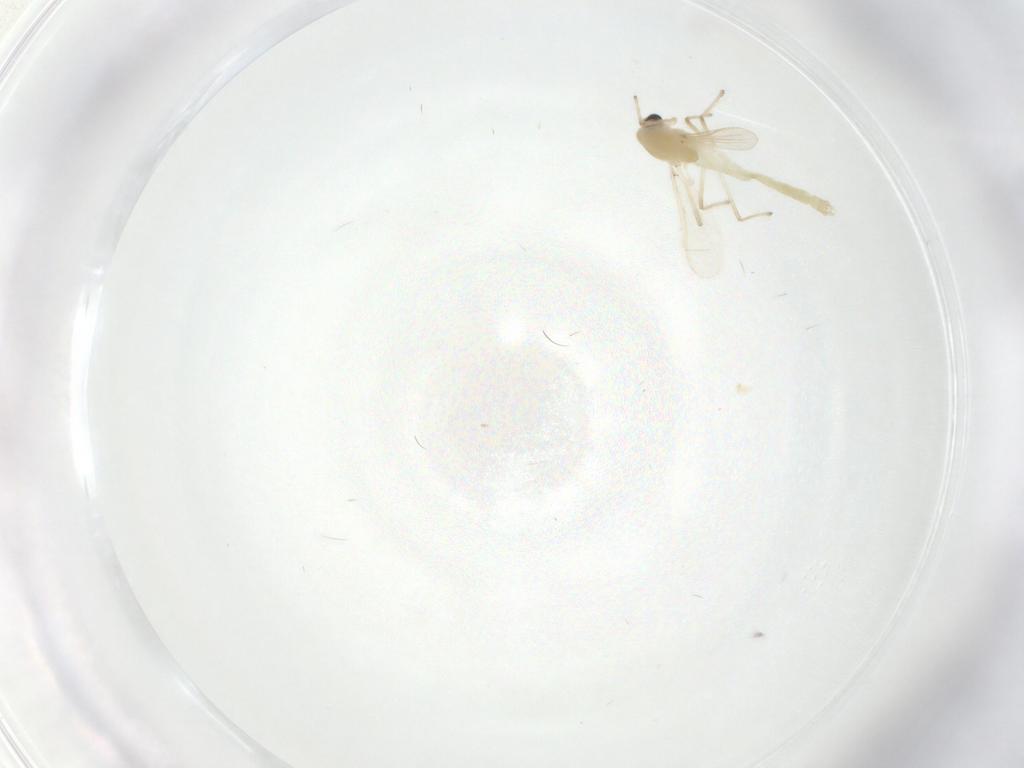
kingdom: Animalia
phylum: Arthropoda
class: Insecta
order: Diptera
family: Chironomidae
